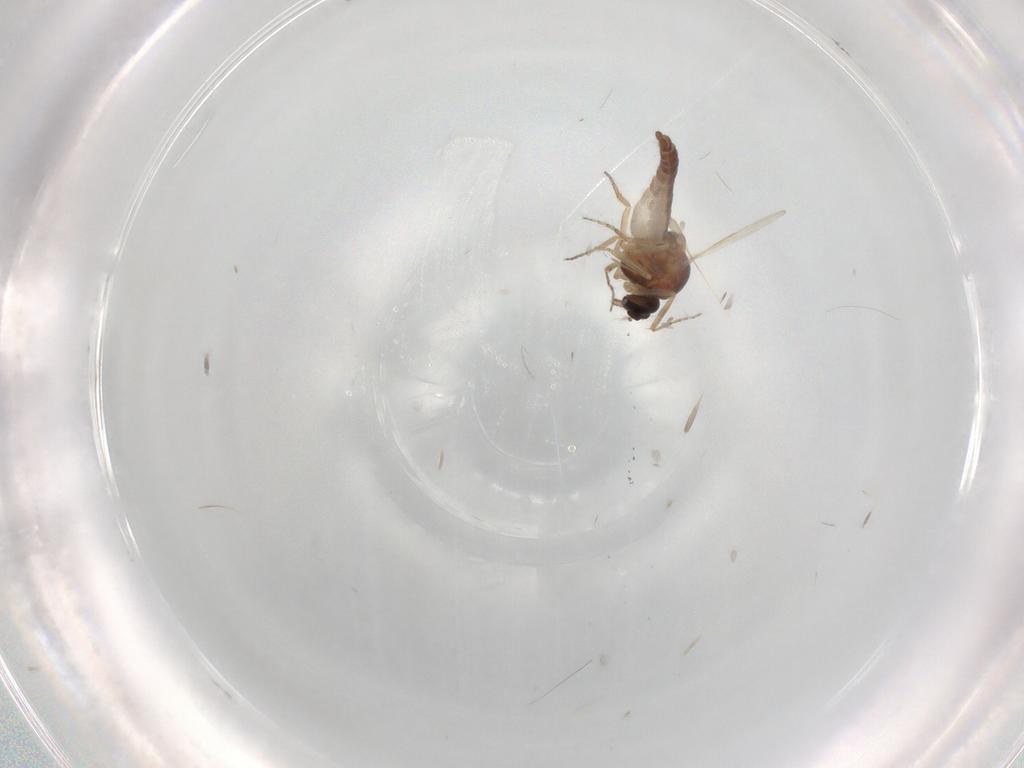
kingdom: Animalia
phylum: Arthropoda
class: Insecta
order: Diptera
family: Ceratopogonidae
